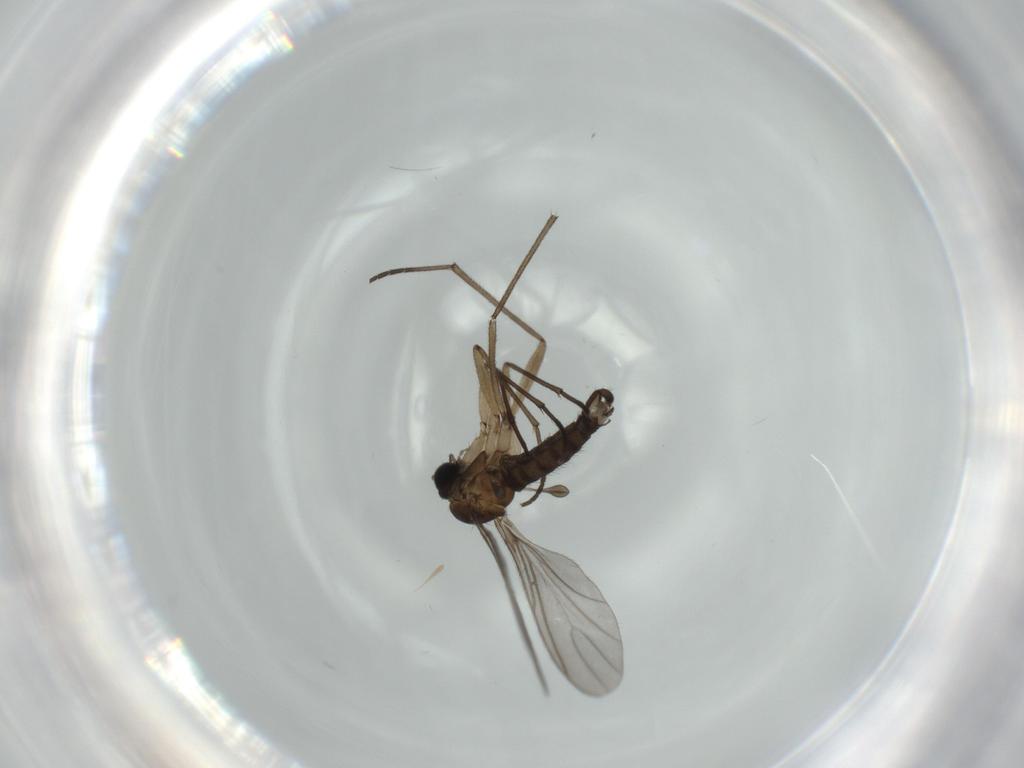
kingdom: Animalia
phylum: Arthropoda
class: Insecta
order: Diptera
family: Sciaridae
